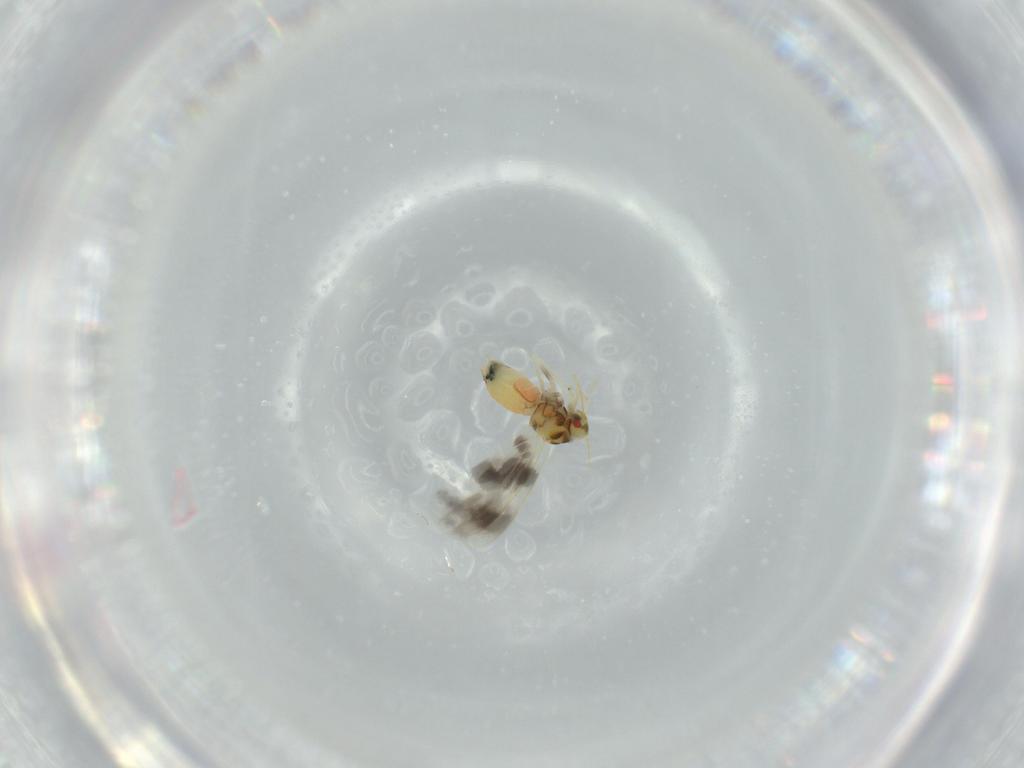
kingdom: Animalia
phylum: Arthropoda
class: Insecta
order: Hemiptera
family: Aleyrodidae
